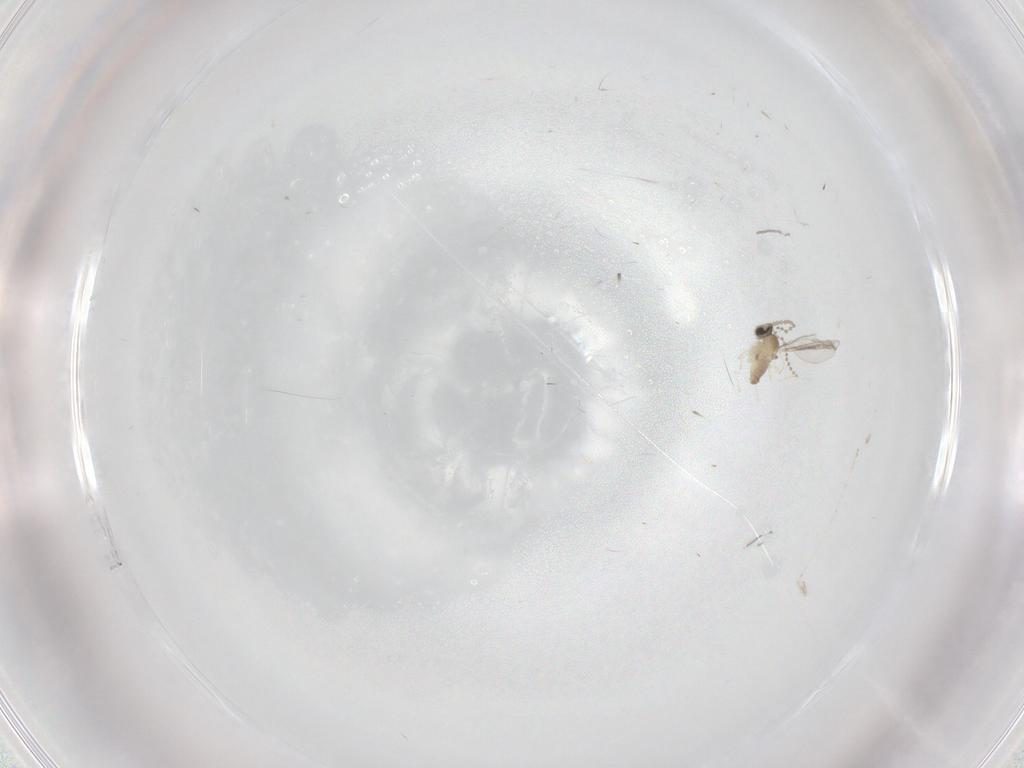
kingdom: Animalia
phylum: Arthropoda
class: Insecta
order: Diptera
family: Cecidomyiidae
